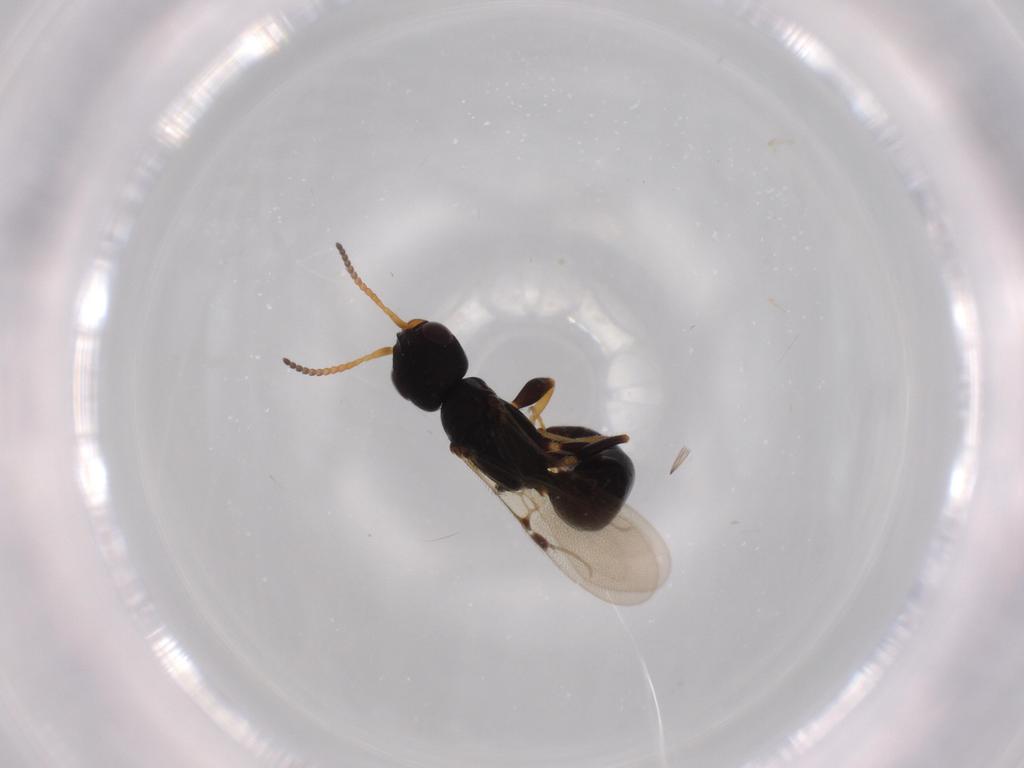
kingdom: Animalia
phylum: Arthropoda
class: Insecta
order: Hymenoptera
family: Bethylidae
